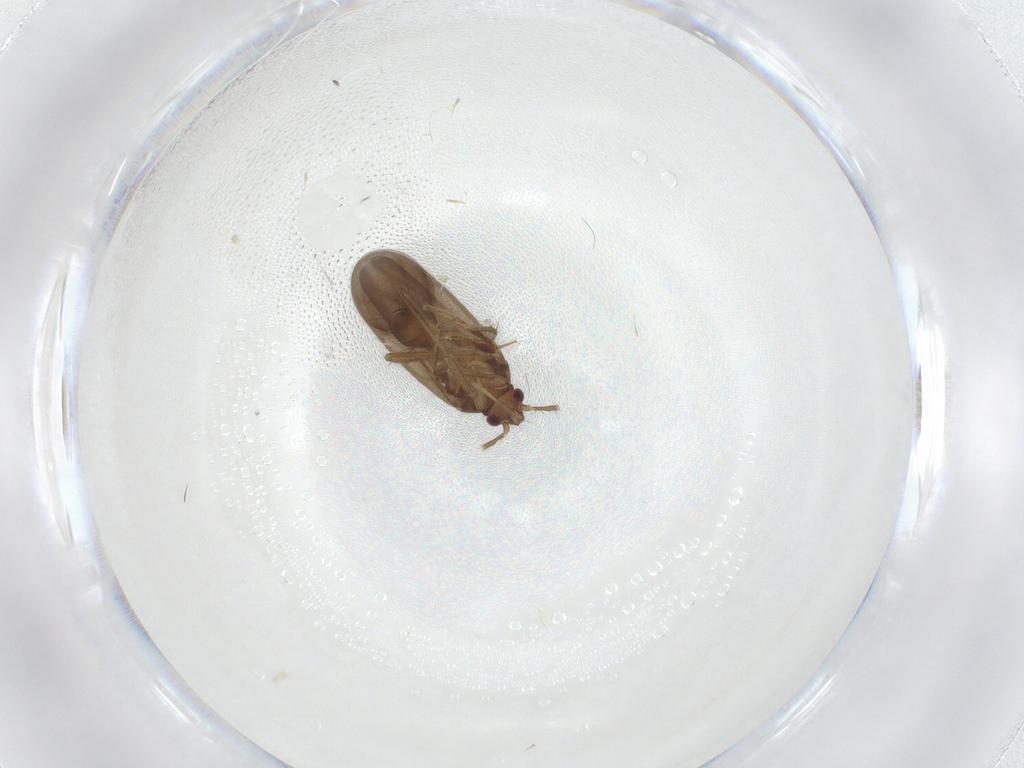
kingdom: Animalia
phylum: Arthropoda
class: Insecta
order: Hemiptera
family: Ceratocombidae
